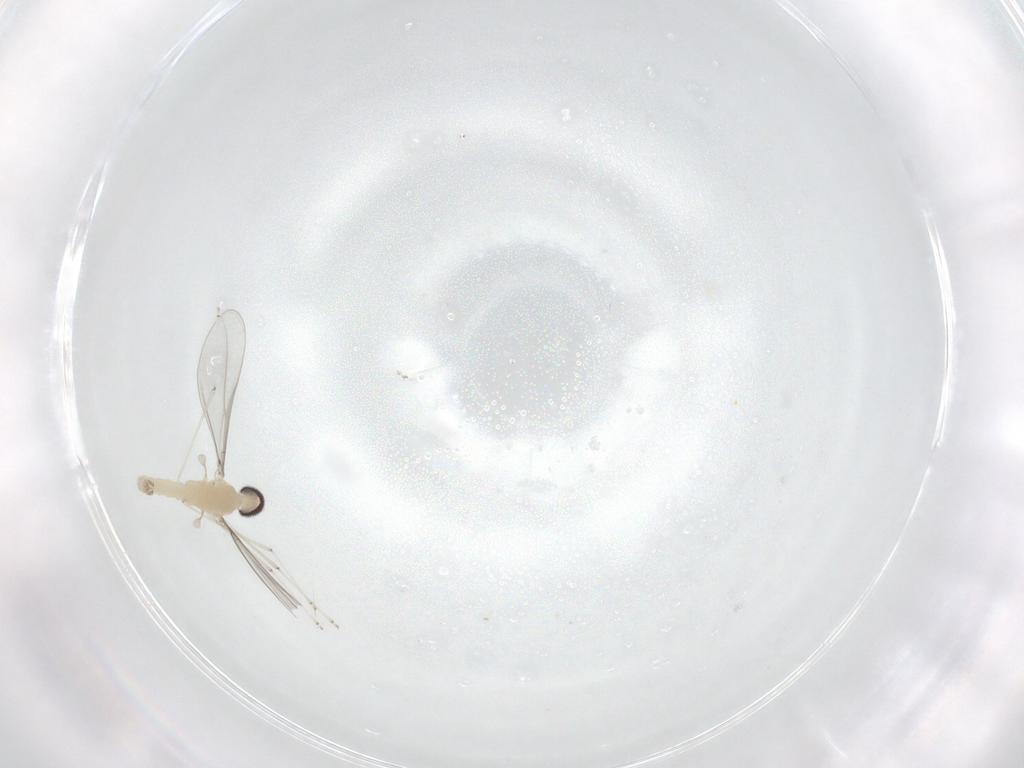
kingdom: Animalia
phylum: Arthropoda
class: Insecta
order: Diptera
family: Cecidomyiidae
